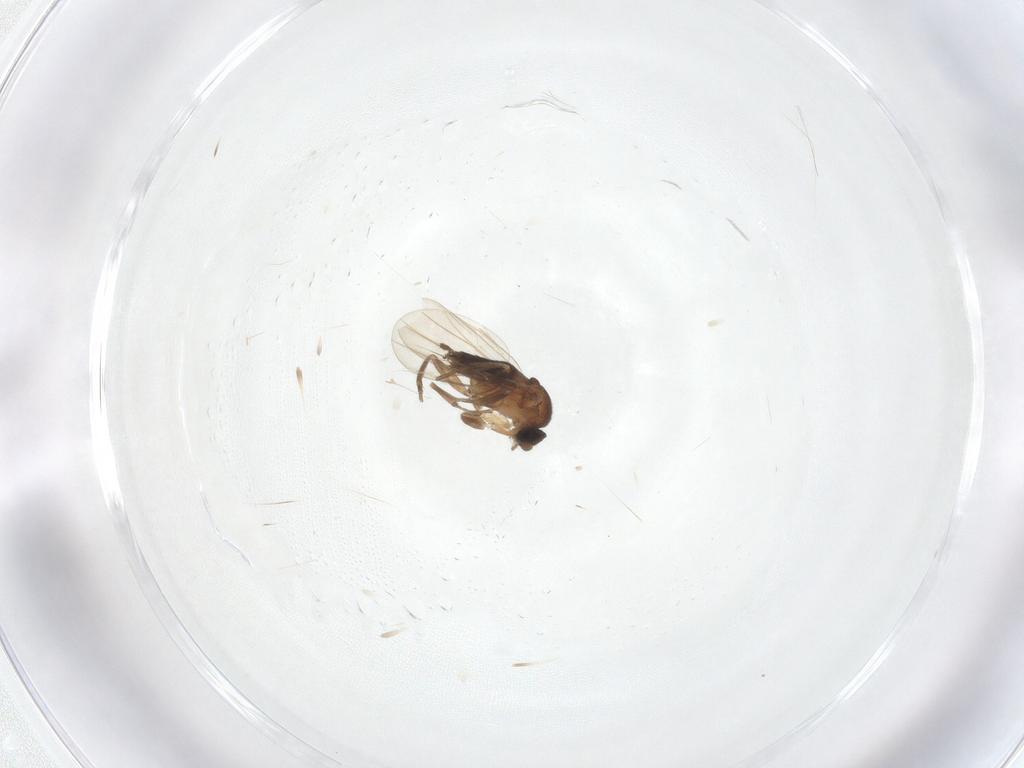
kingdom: Animalia
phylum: Arthropoda
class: Insecta
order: Diptera
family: Phoridae
